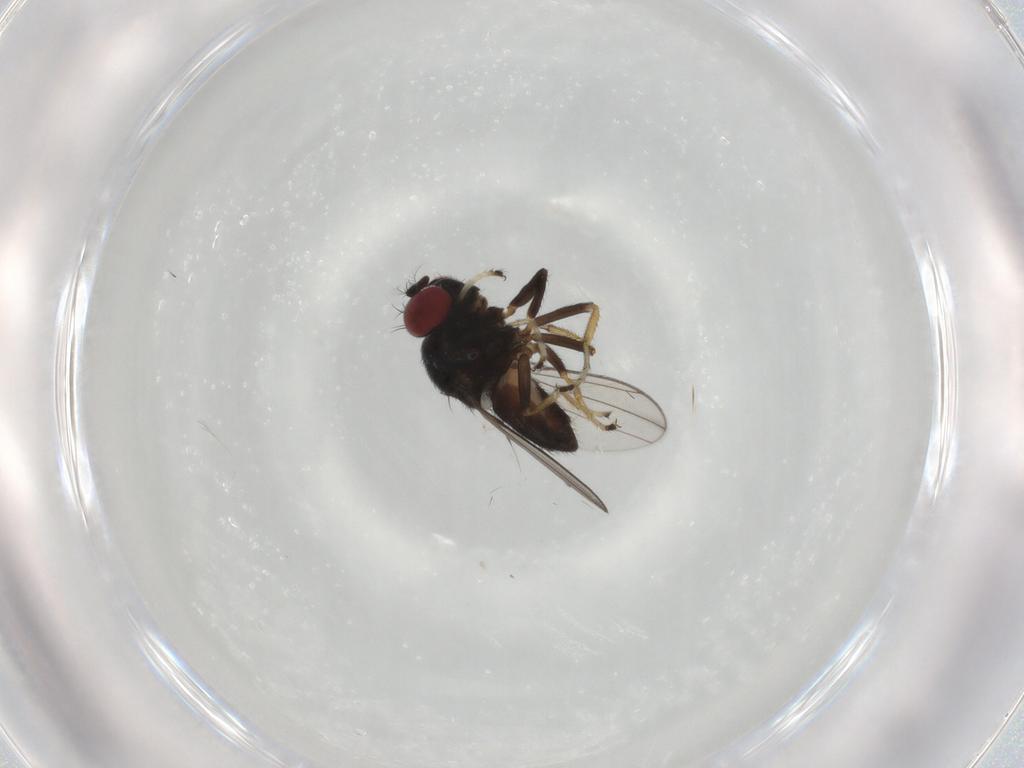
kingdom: Animalia
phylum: Arthropoda
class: Insecta
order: Diptera
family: Ephydridae
